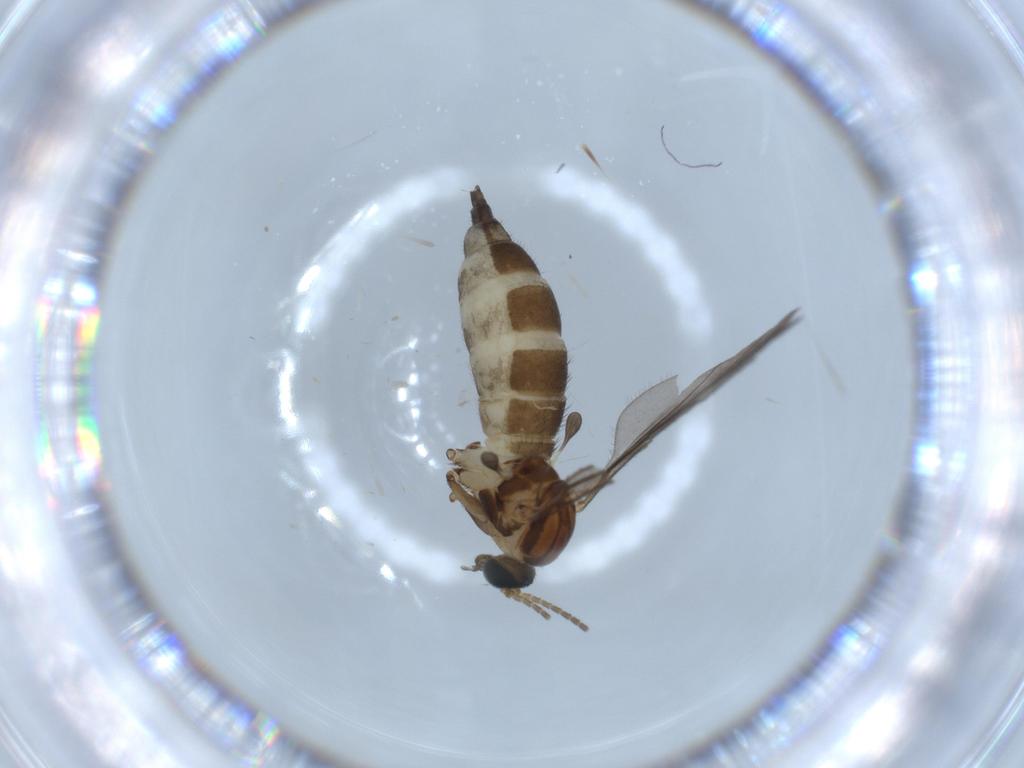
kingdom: Animalia
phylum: Arthropoda
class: Insecta
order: Diptera
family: Sciaridae
